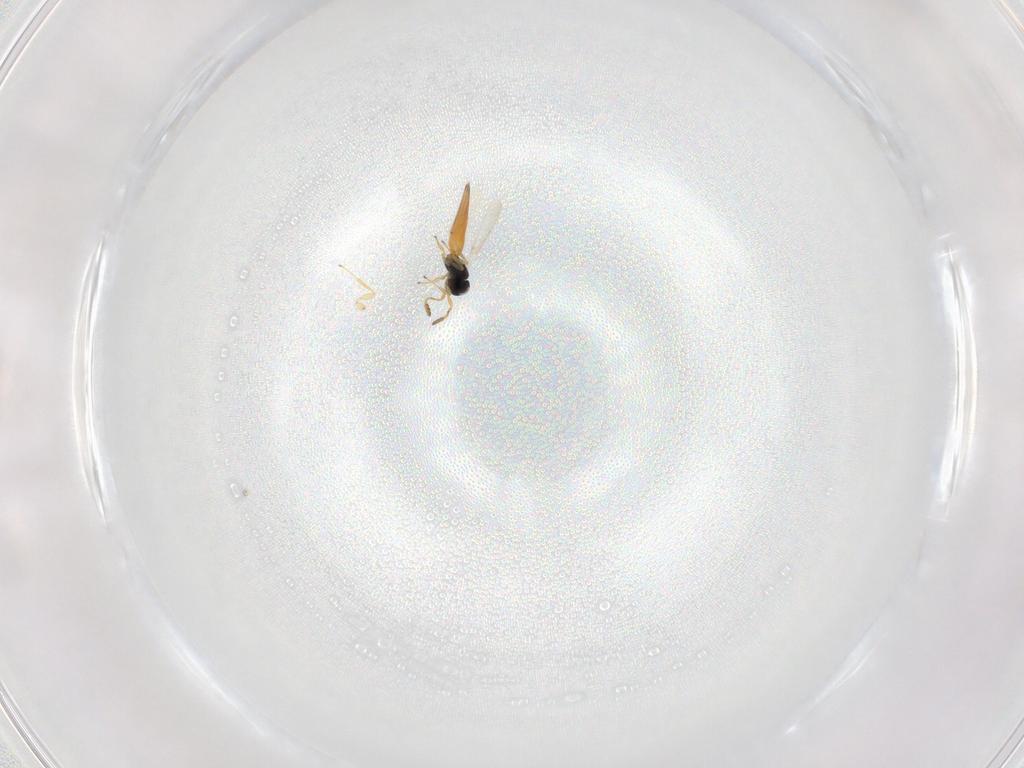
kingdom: Animalia
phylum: Arthropoda
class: Insecta
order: Hymenoptera
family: Scelionidae
